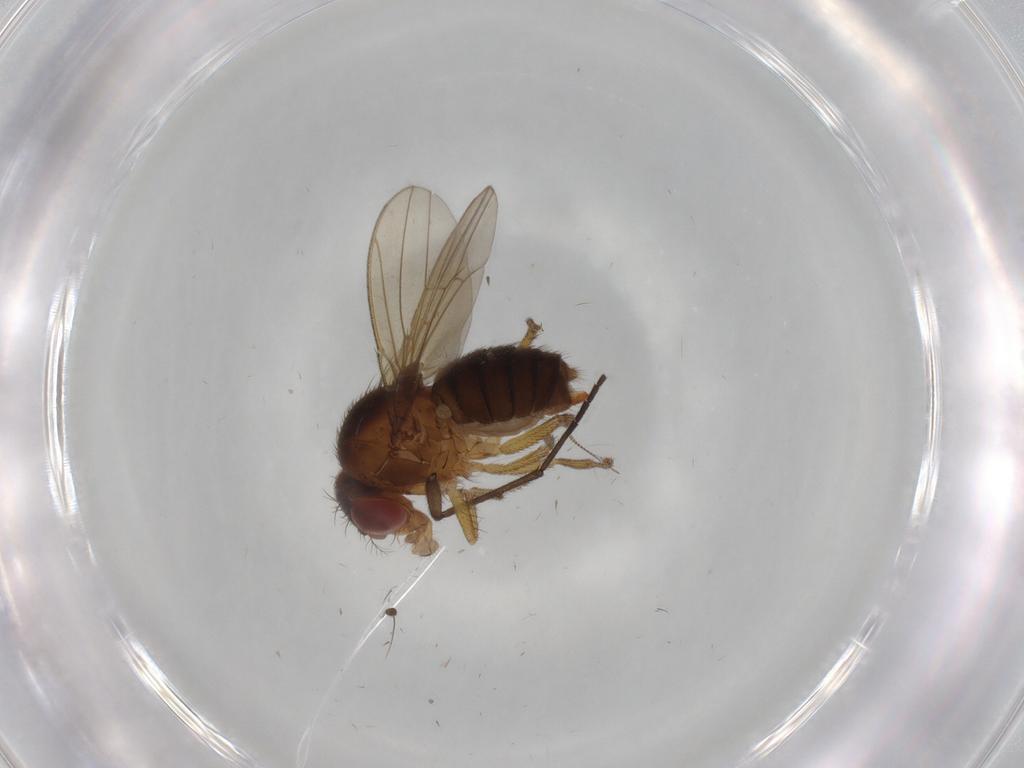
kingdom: Animalia
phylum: Arthropoda
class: Insecta
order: Diptera
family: Drosophilidae
